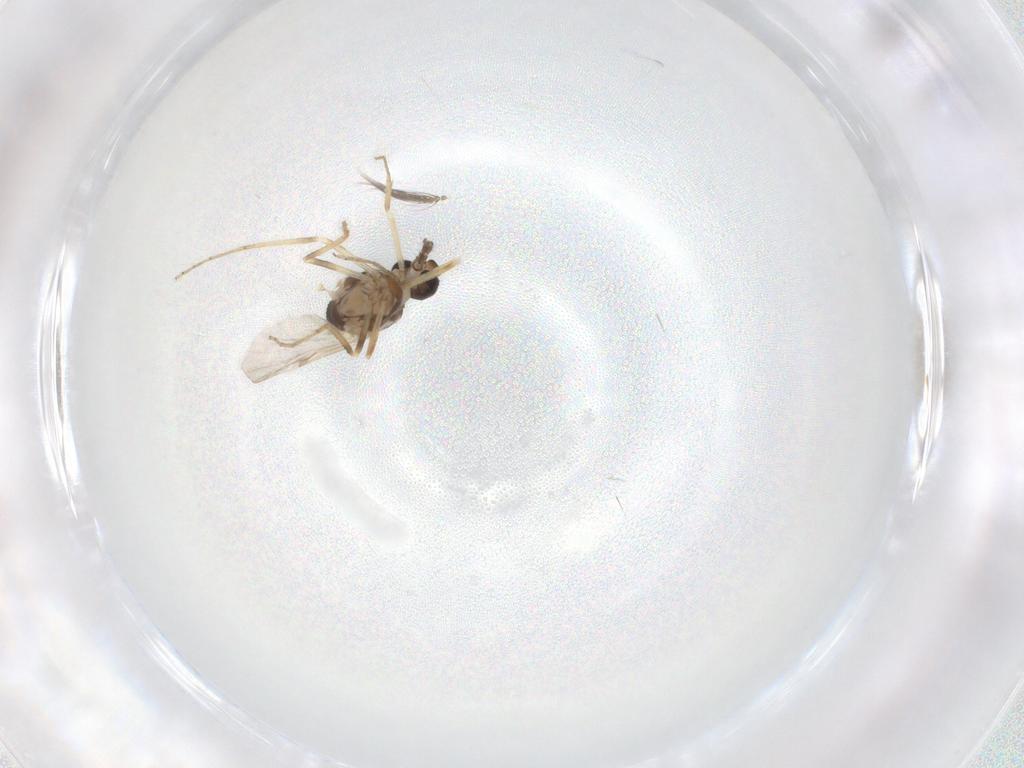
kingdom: Animalia
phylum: Arthropoda
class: Insecta
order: Diptera
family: Ceratopogonidae
